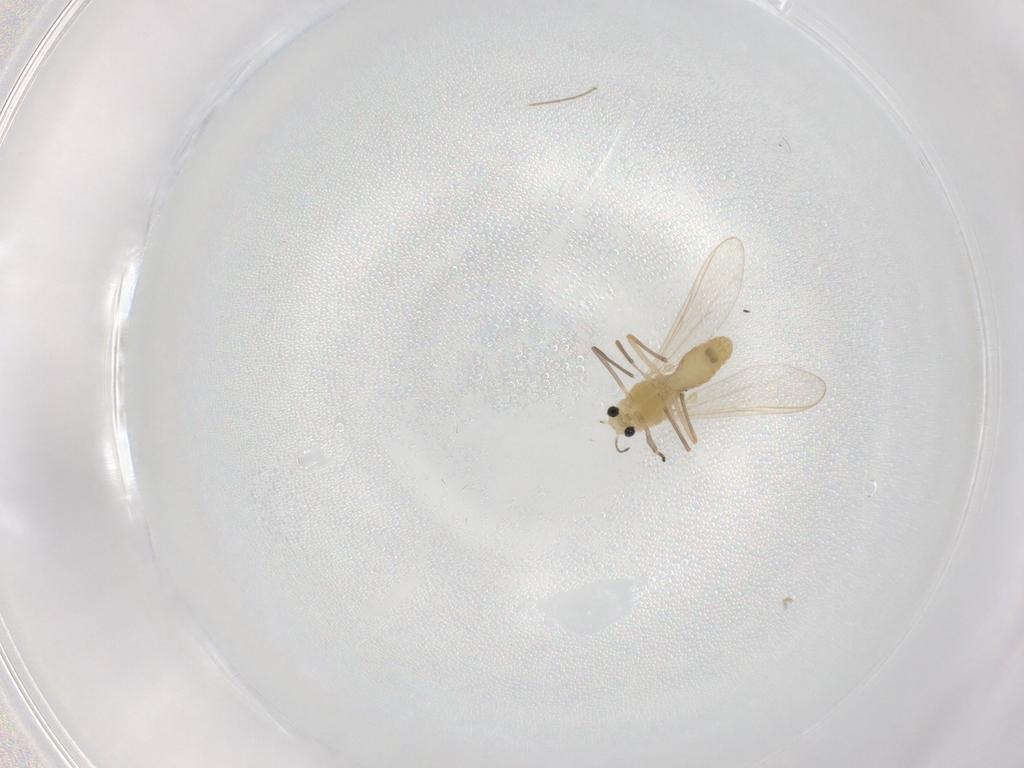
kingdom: Animalia
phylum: Arthropoda
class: Insecta
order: Diptera
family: Chironomidae
